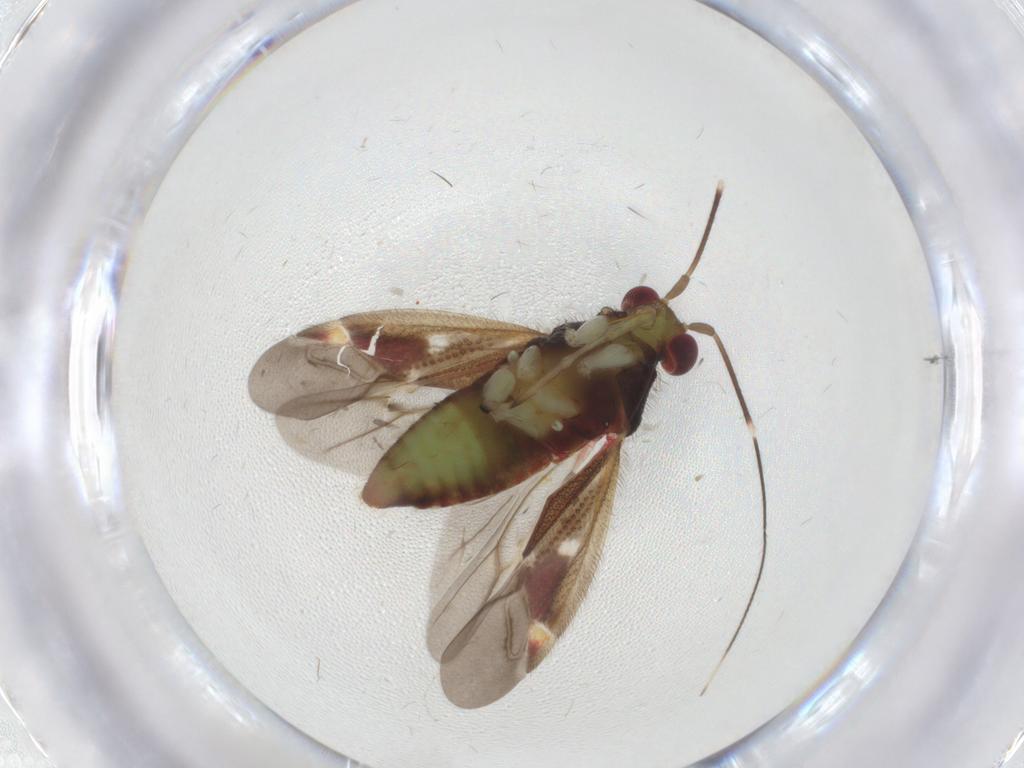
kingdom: Animalia
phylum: Arthropoda
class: Insecta
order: Hemiptera
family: Miridae
